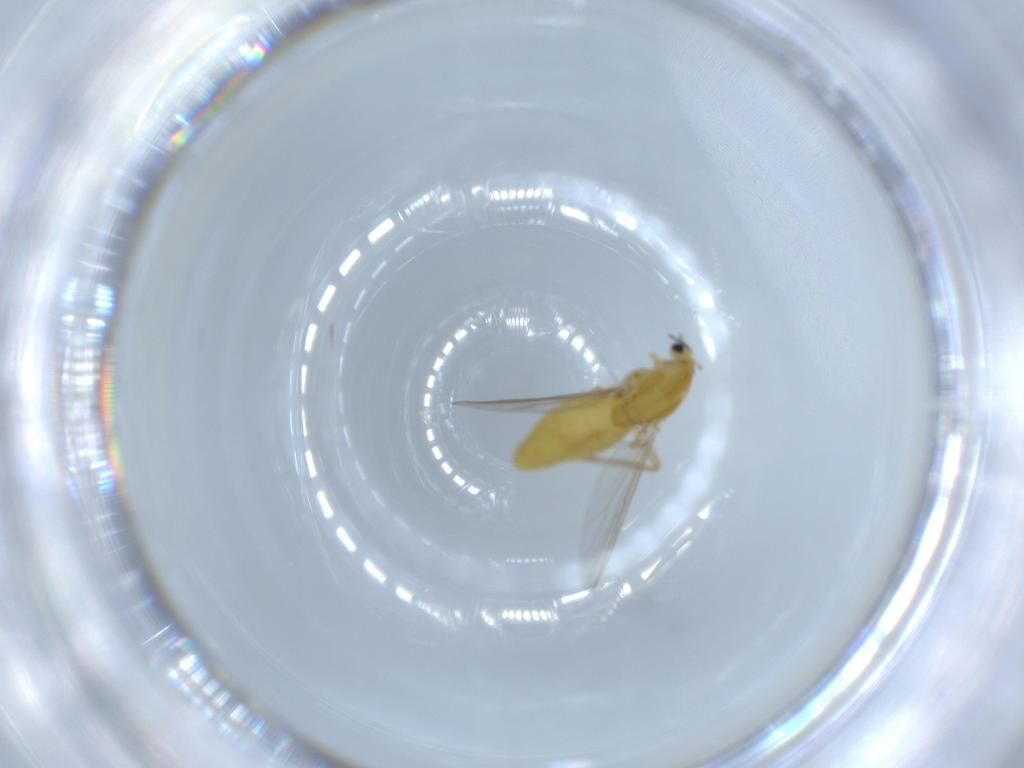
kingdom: Animalia
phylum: Arthropoda
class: Insecta
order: Diptera
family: Chironomidae
